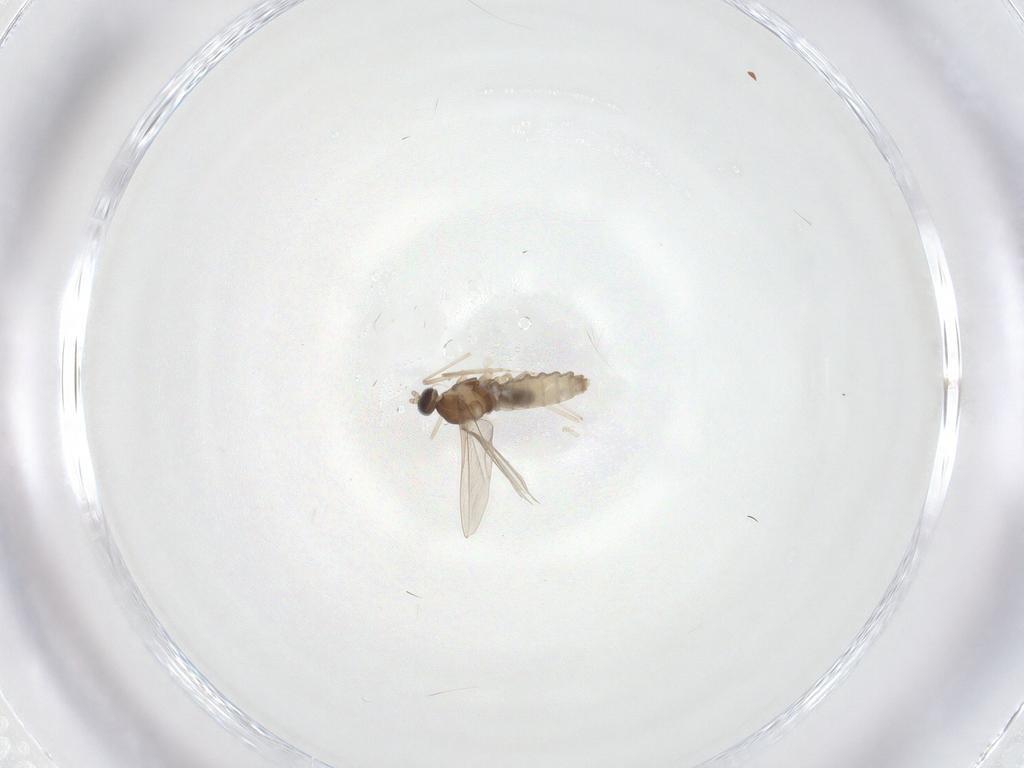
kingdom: Animalia
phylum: Arthropoda
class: Insecta
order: Diptera
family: Cecidomyiidae
